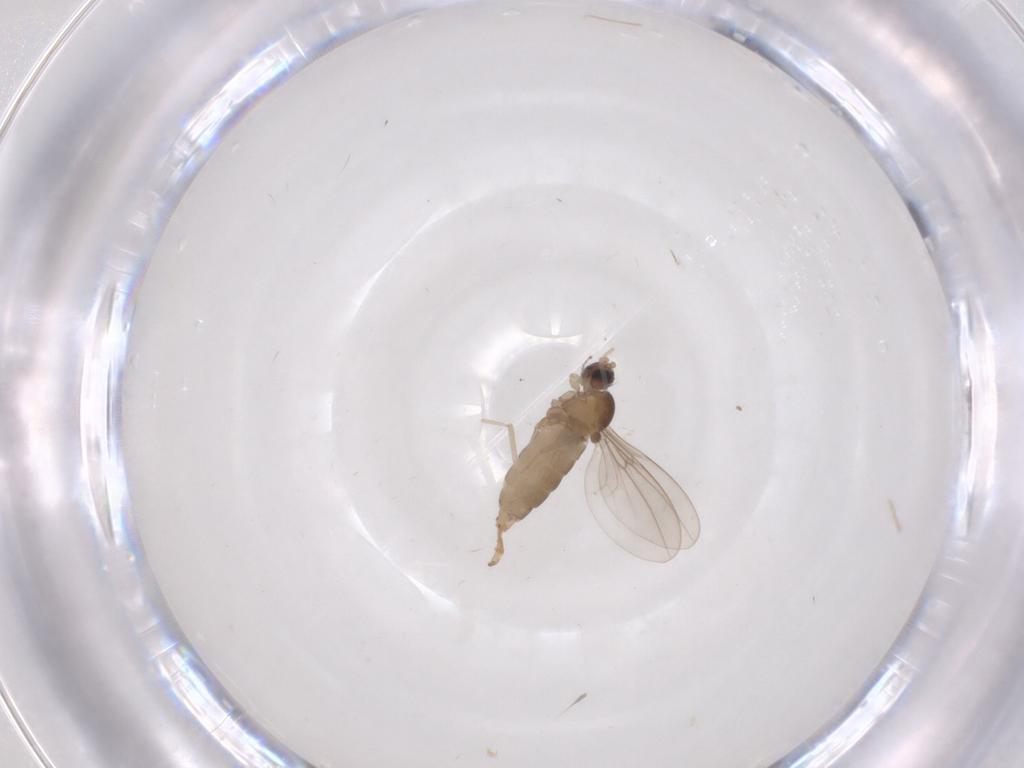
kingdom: Animalia
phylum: Arthropoda
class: Insecta
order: Diptera
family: Cecidomyiidae
